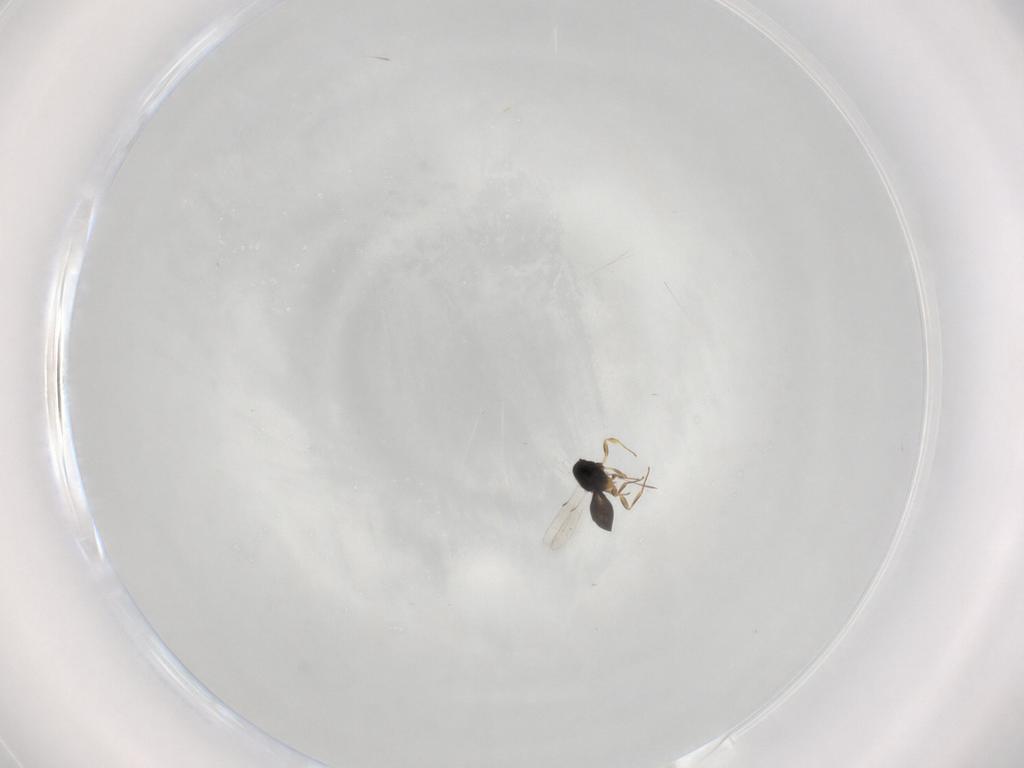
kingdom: Animalia
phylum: Arthropoda
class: Insecta
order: Hymenoptera
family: Scelionidae
